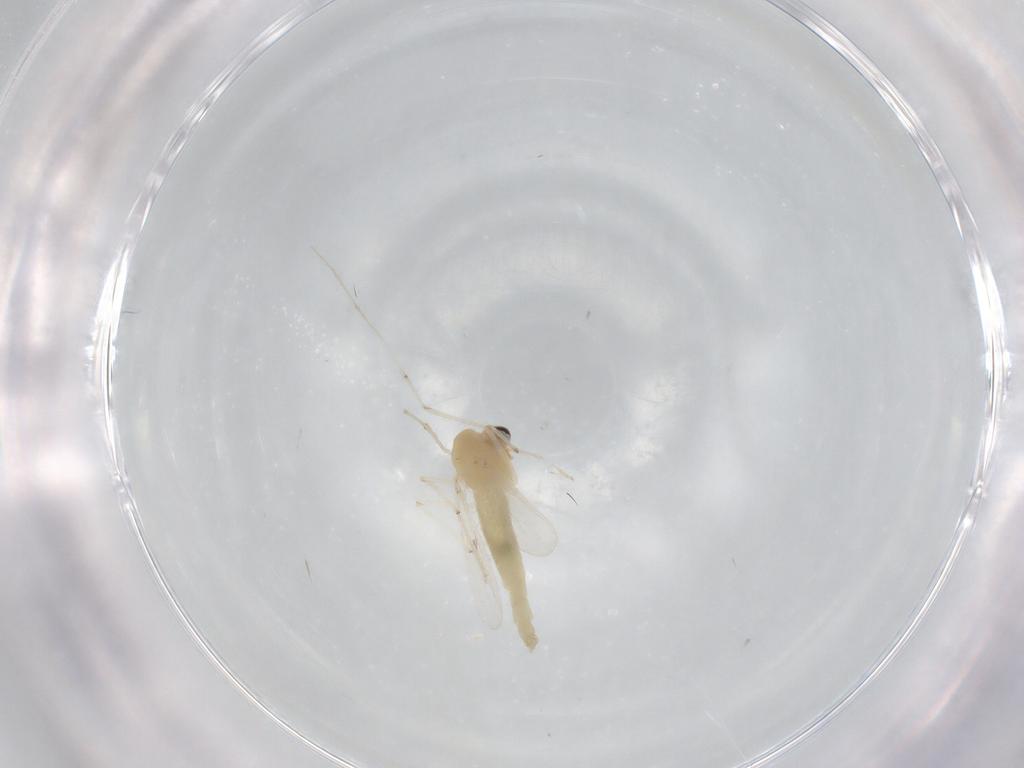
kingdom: Animalia
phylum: Arthropoda
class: Insecta
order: Diptera
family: Chironomidae
